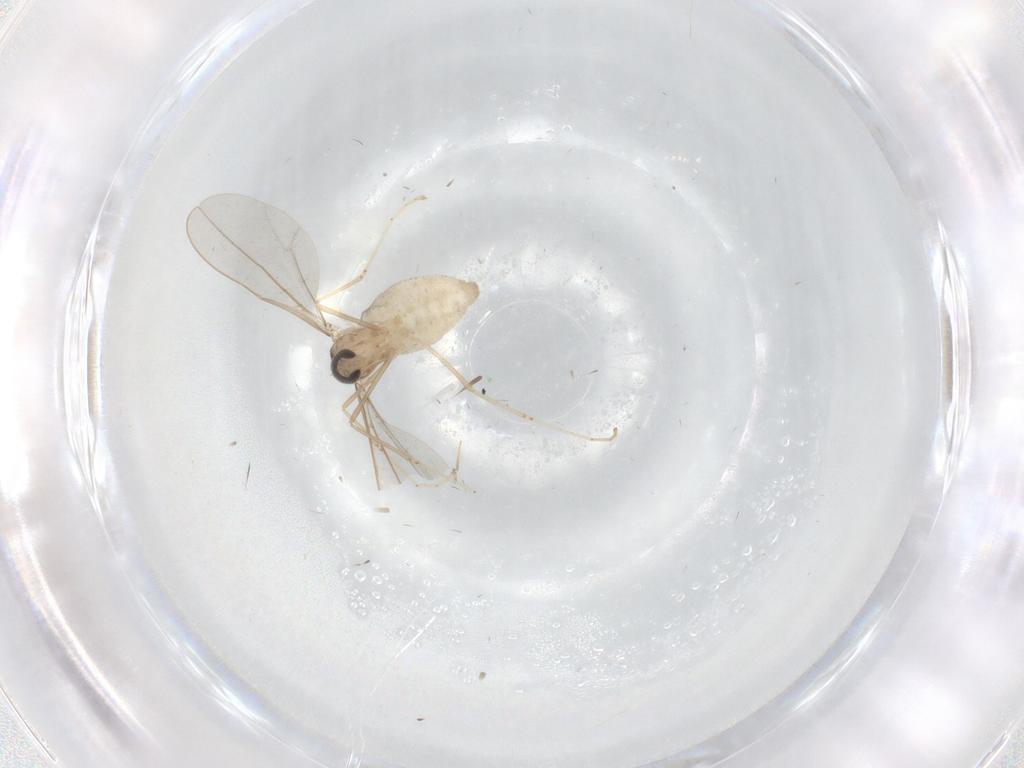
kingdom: Animalia
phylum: Arthropoda
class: Insecta
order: Diptera
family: Cecidomyiidae
